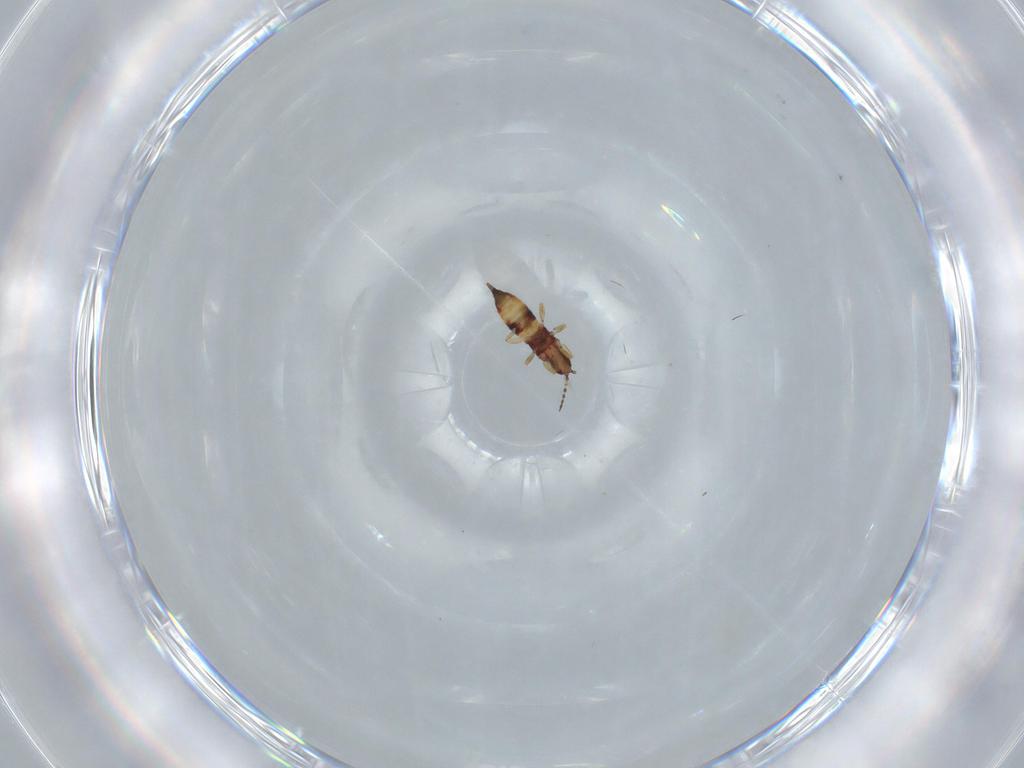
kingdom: Animalia
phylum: Arthropoda
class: Insecta
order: Thysanoptera
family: Phlaeothripidae
